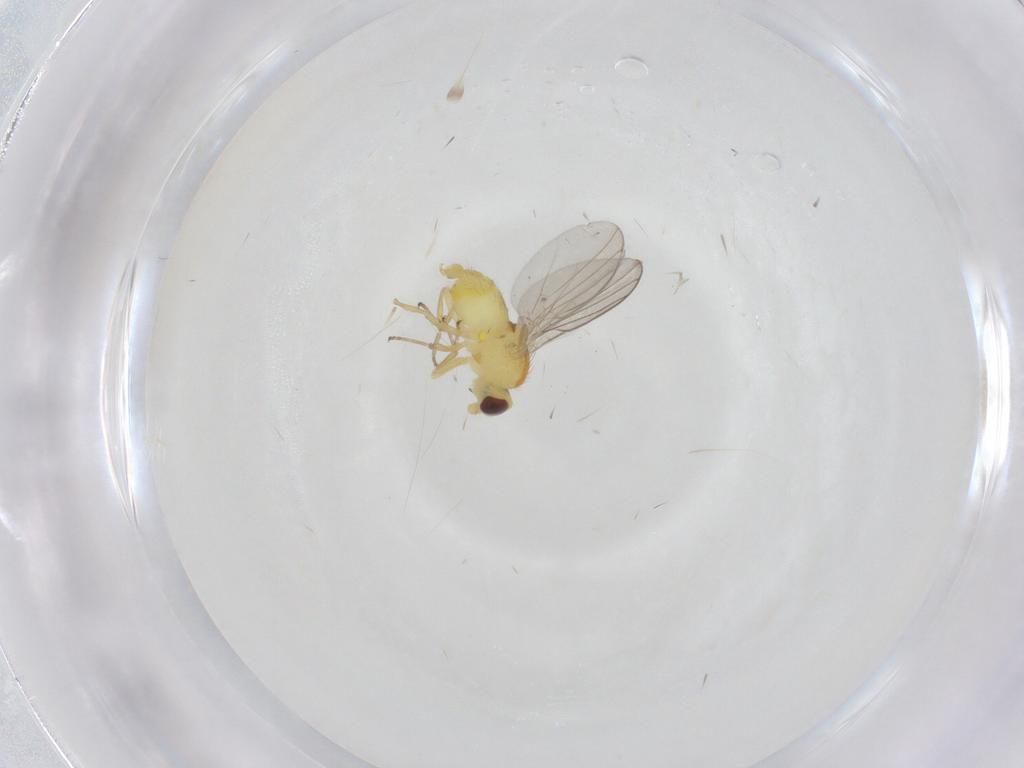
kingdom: Animalia
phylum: Arthropoda
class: Insecta
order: Diptera
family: Agromyzidae
